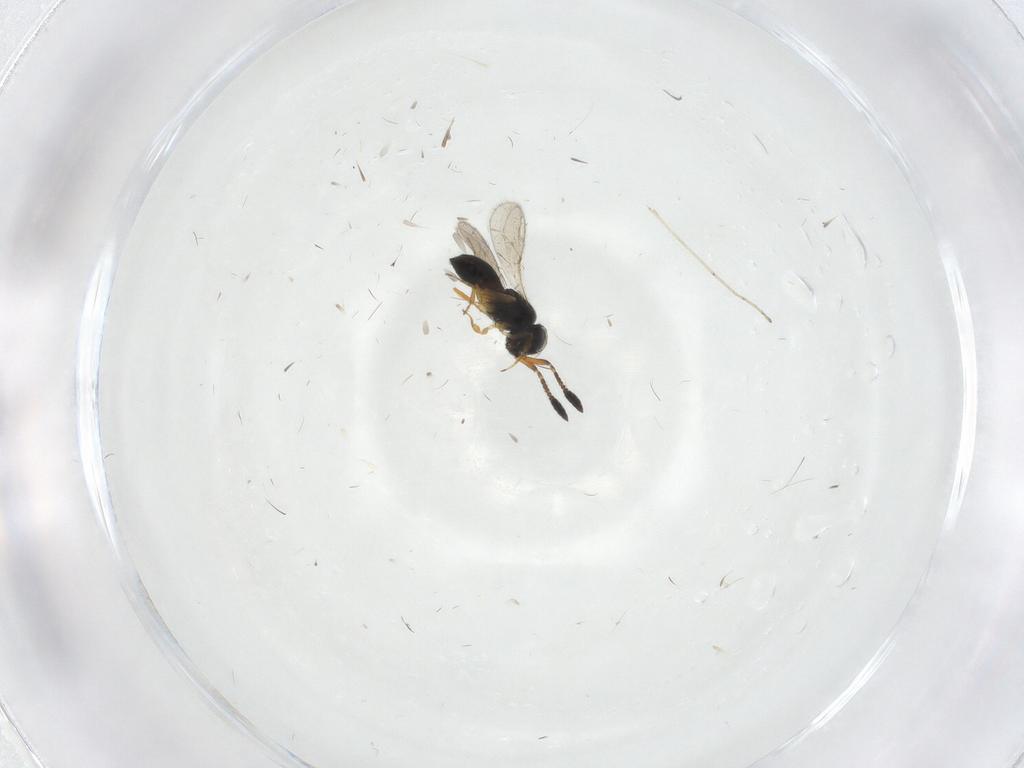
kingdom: Animalia
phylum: Arthropoda
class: Insecta
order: Hymenoptera
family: Scelionidae
